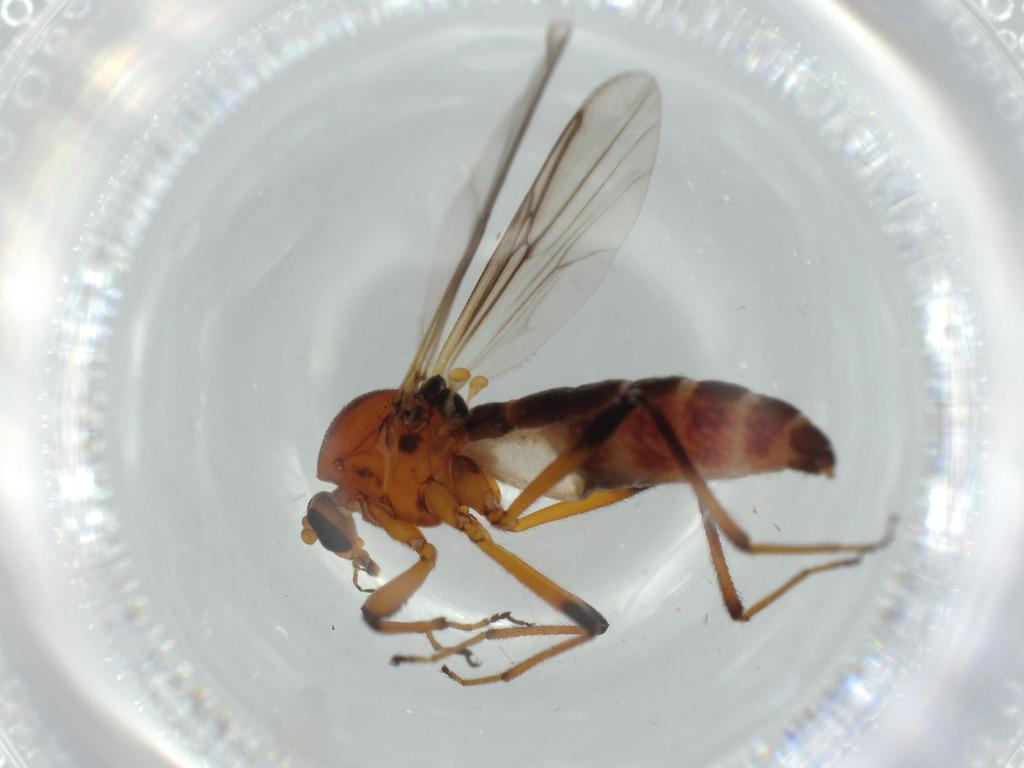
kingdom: Animalia
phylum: Arthropoda
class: Insecta
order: Diptera
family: Ceratopogonidae
